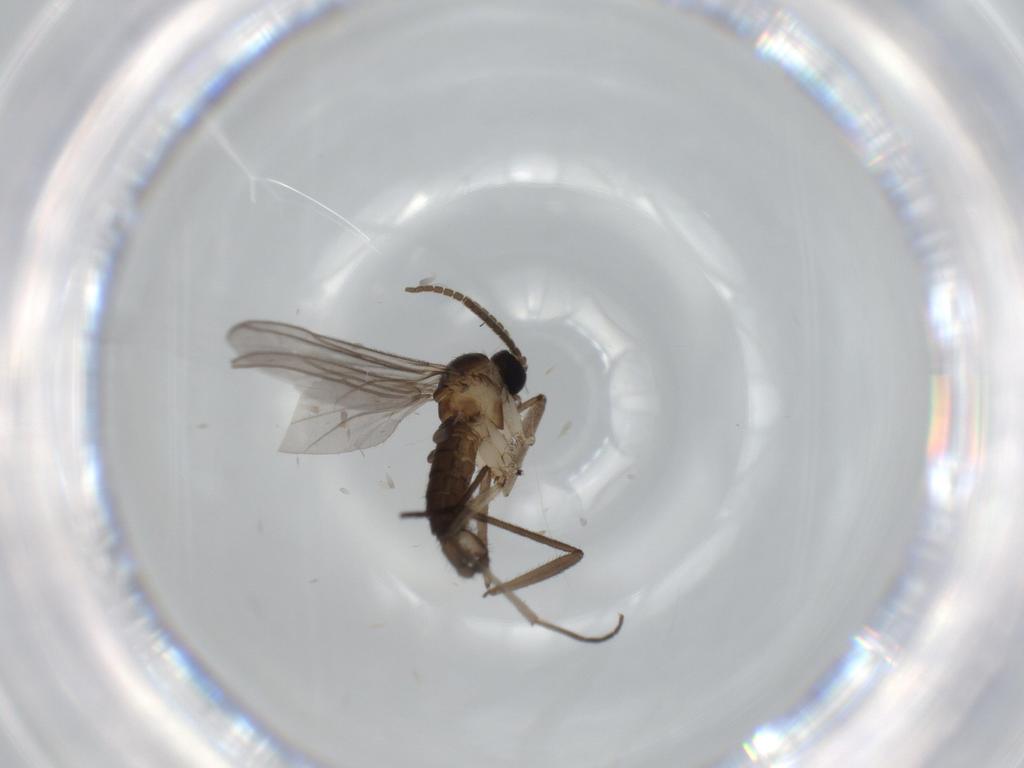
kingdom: Animalia
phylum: Arthropoda
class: Insecta
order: Diptera
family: Sciaridae
